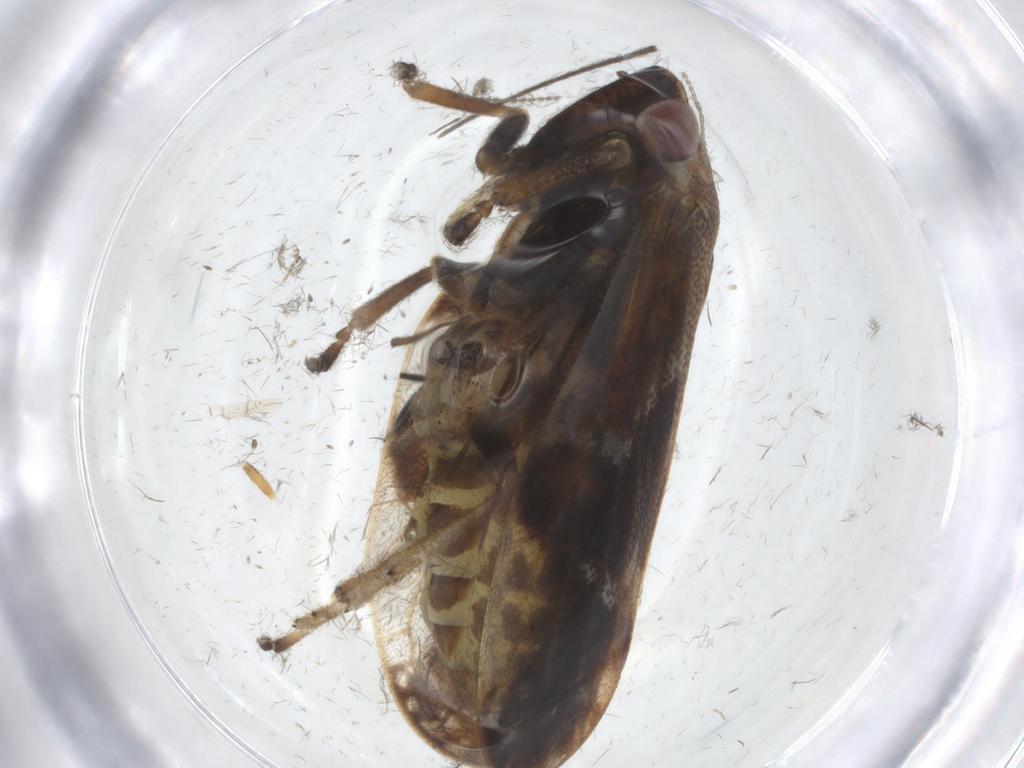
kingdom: Animalia
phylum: Arthropoda
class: Insecta
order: Hemiptera
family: Aphrophoridae
